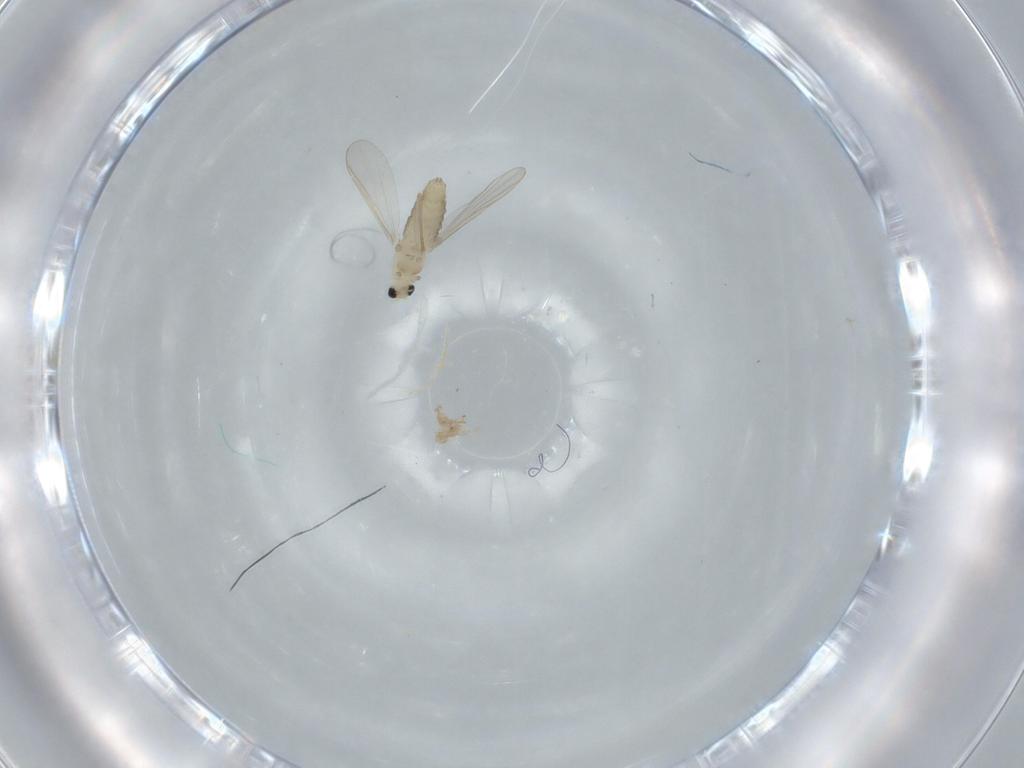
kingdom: Animalia
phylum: Arthropoda
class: Insecta
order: Diptera
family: Chironomidae
